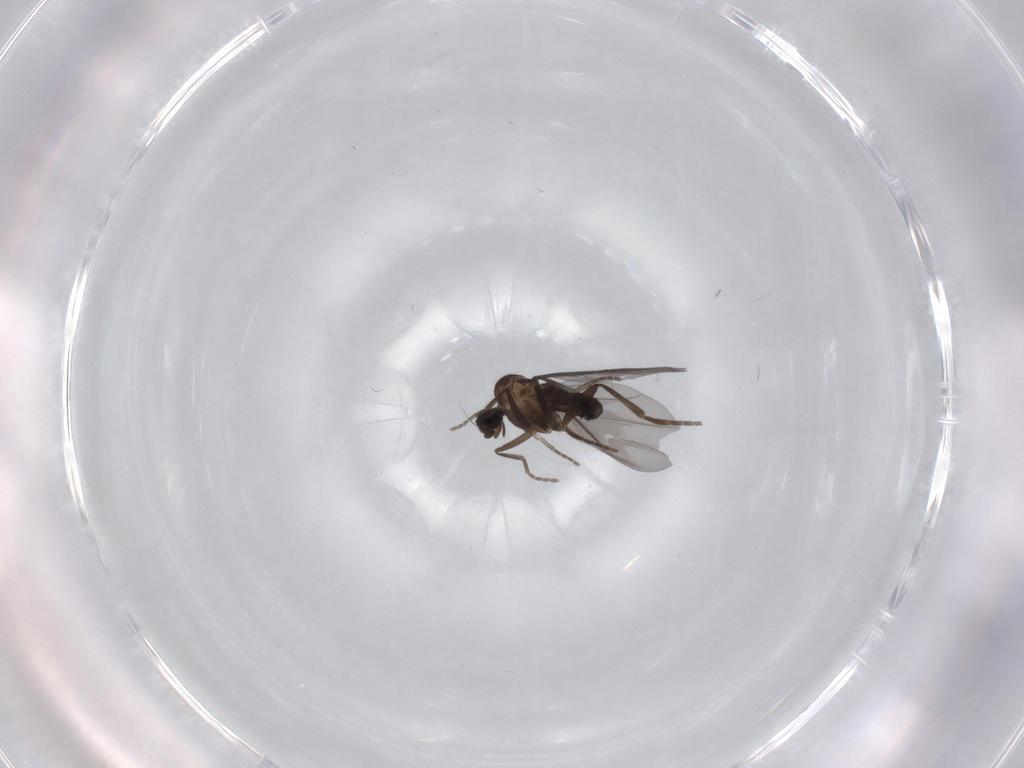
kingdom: Animalia
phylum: Arthropoda
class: Insecta
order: Diptera
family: Phoridae
